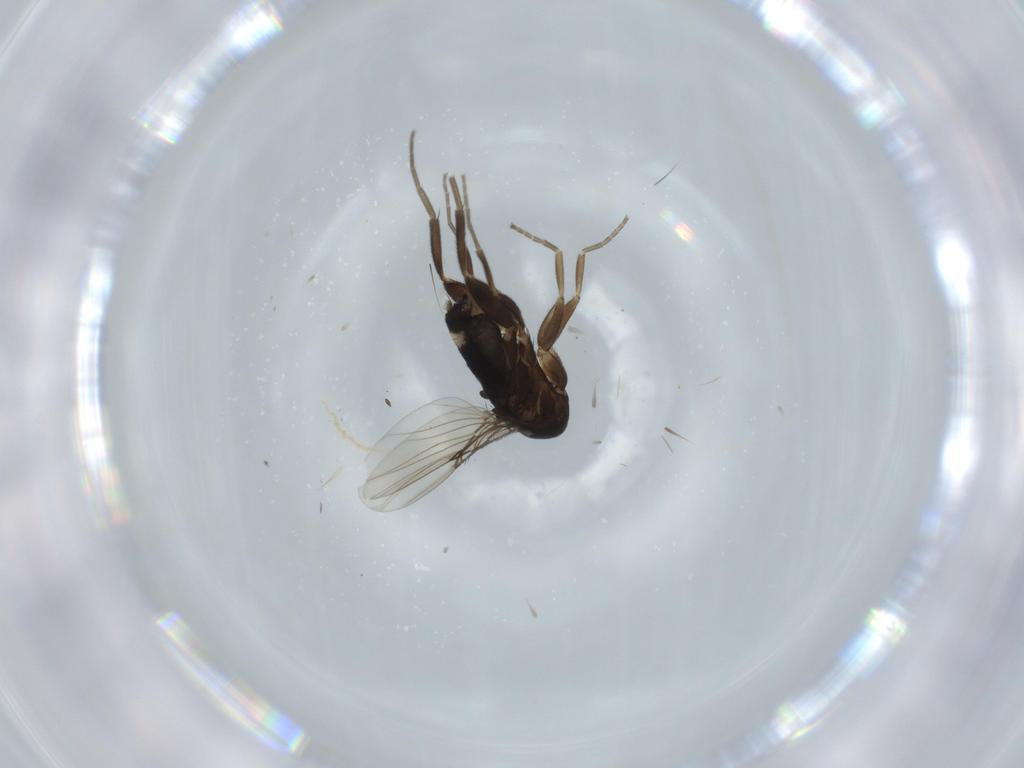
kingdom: Animalia
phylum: Arthropoda
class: Insecta
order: Diptera
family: Phoridae
